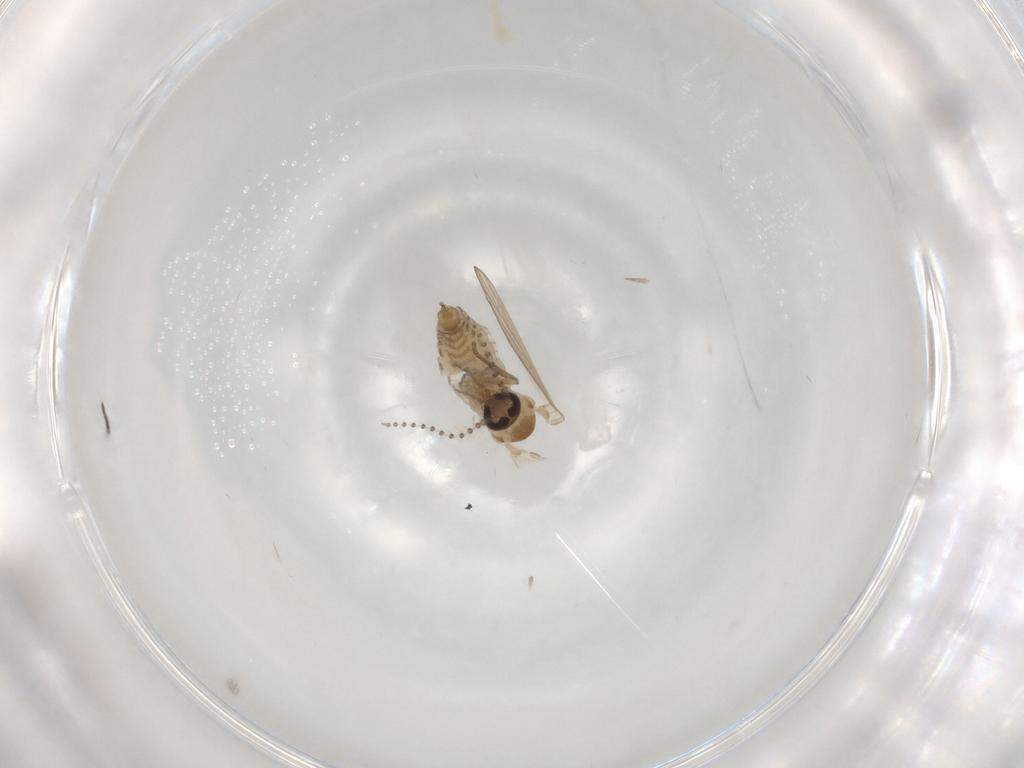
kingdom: Animalia
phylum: Arthropoda
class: Insecta
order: Diptera
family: Psychodidae
